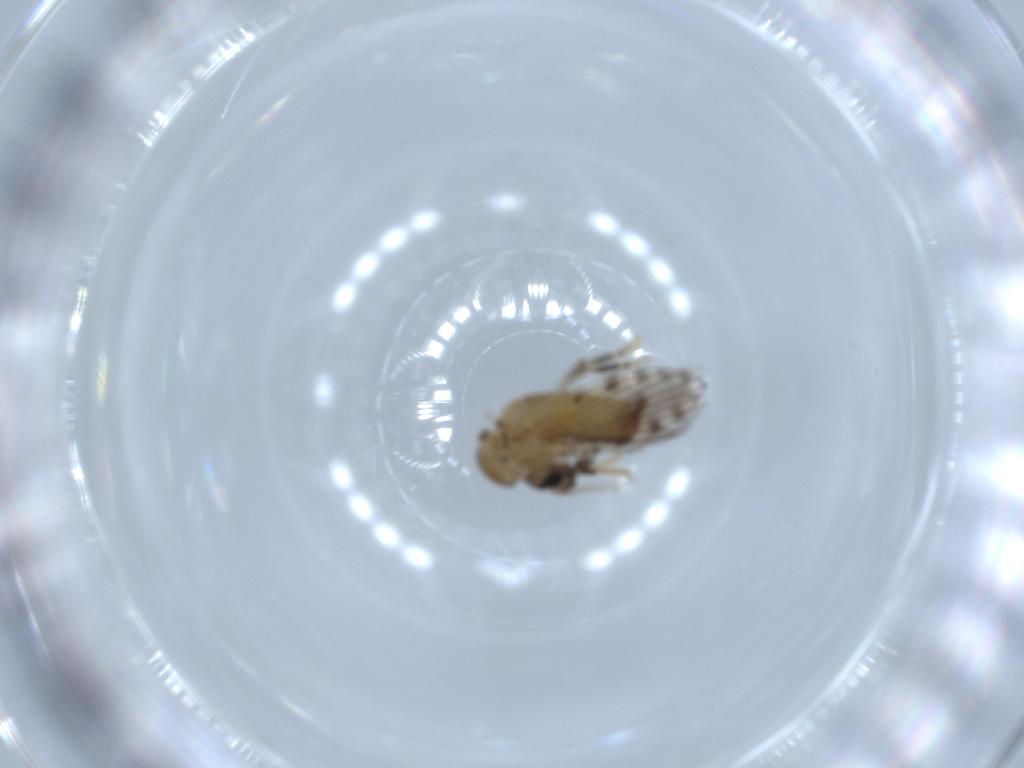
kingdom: Animalia
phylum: Arthropoda
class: Insecta
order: Diptera
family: Psychodidae
